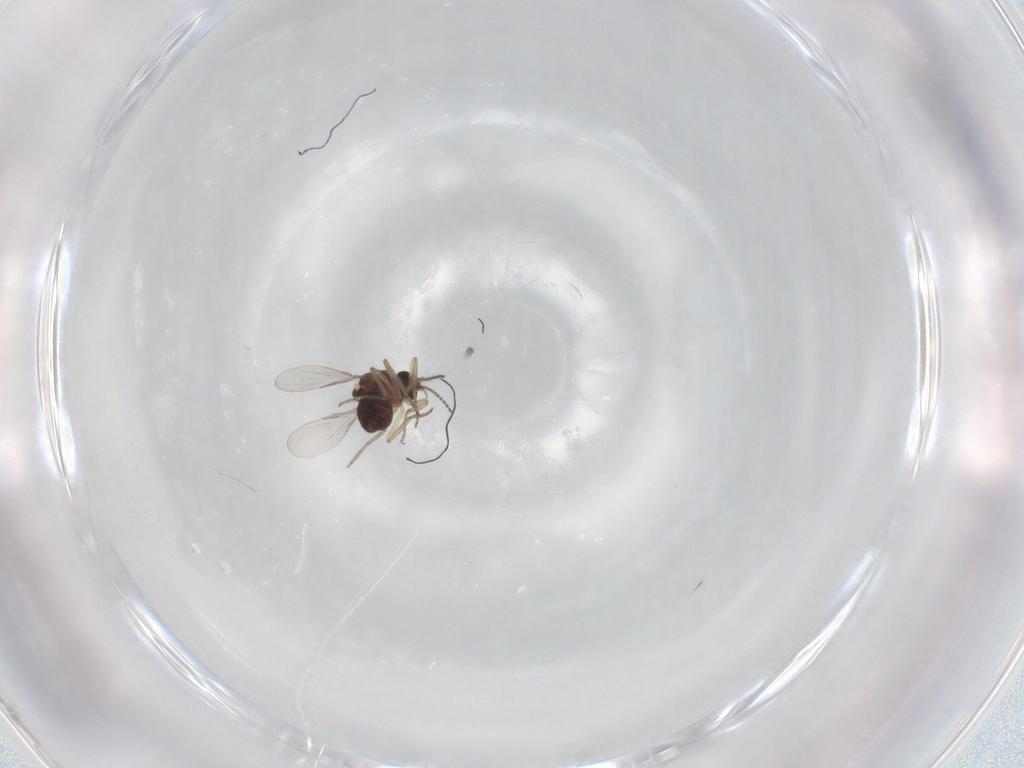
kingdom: Animalia
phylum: Arthropoda
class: Insecta
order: Diptera
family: Ceratopogonidae
